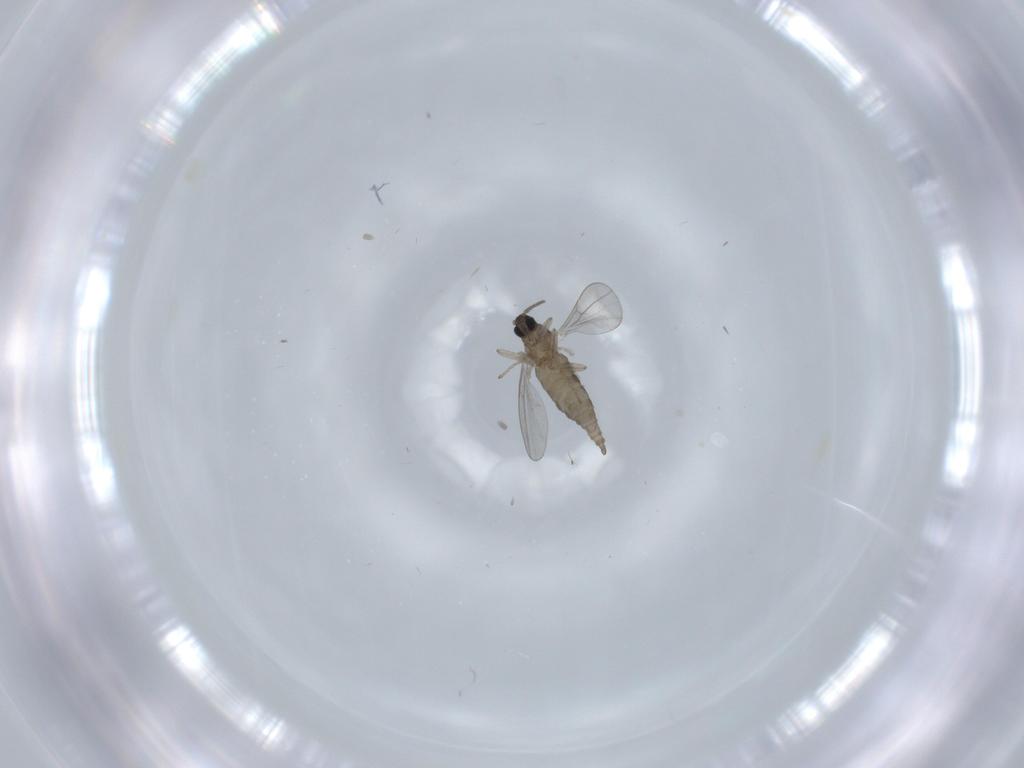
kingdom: Animalia
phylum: Arthropoda
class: Insecta
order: Diptera
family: Cecidomyiidae
